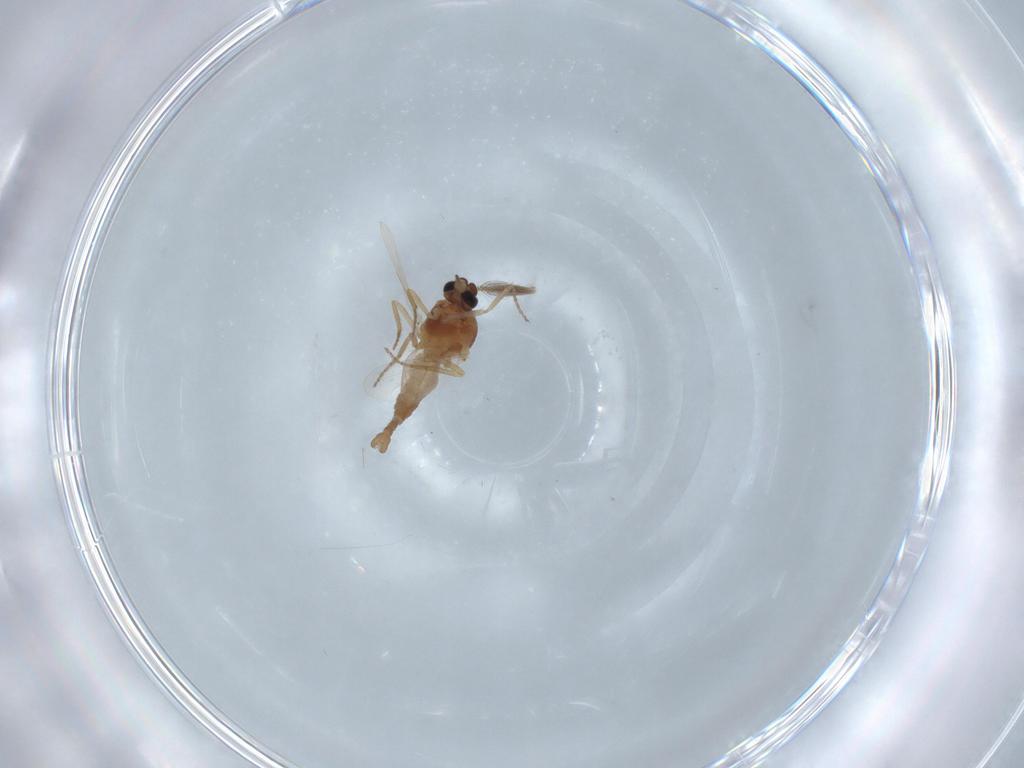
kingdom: Animalia
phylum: Arthropoda
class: Insecta
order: Diptera
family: Ceratopogonidae
